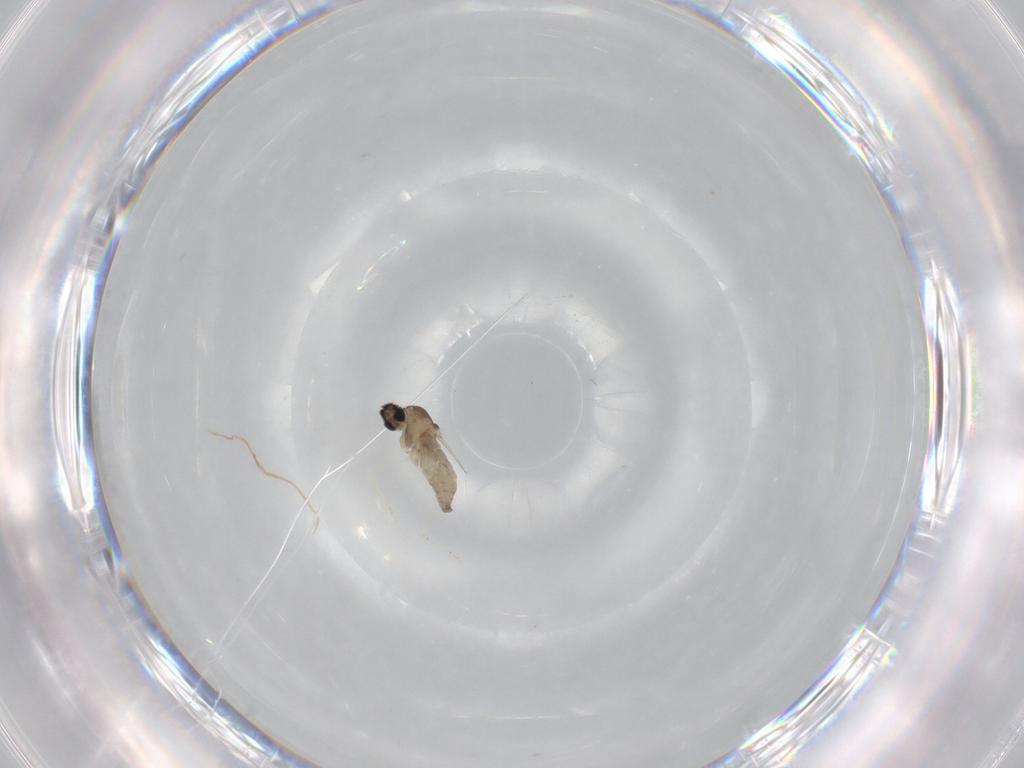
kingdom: Animalia
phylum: Arthropoda
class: Insecta
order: Diptera
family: Cecidomyiidae
